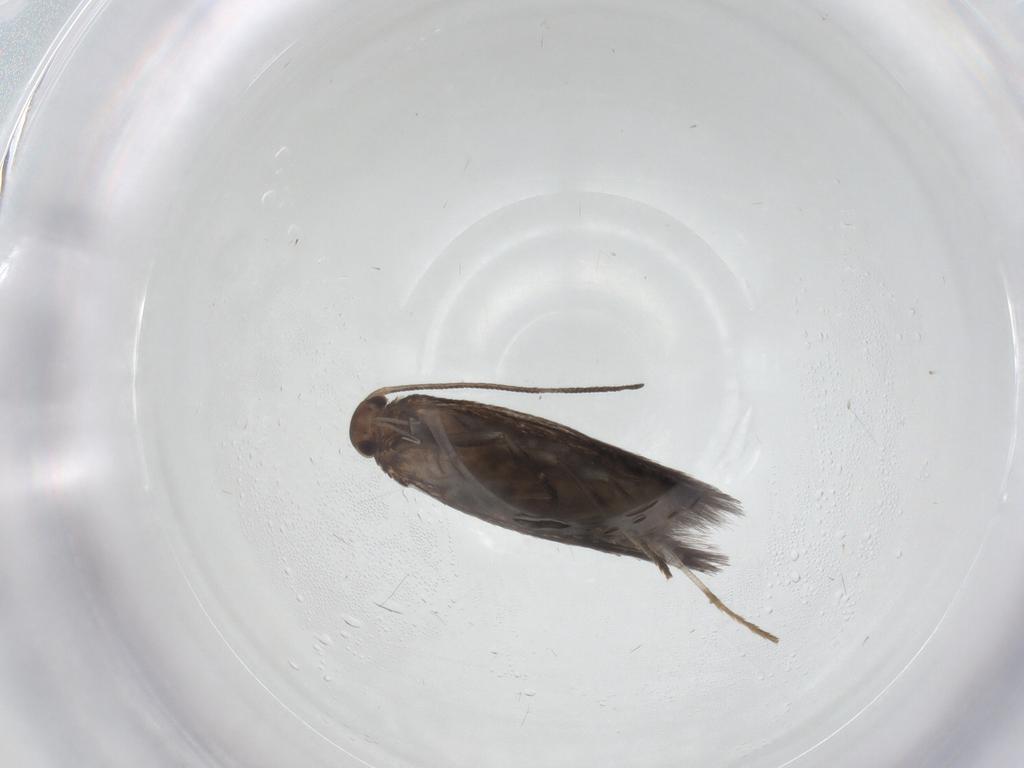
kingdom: Animalia
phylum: Arthropoda
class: Insecta
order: Lepidoptera
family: Elachistidae
